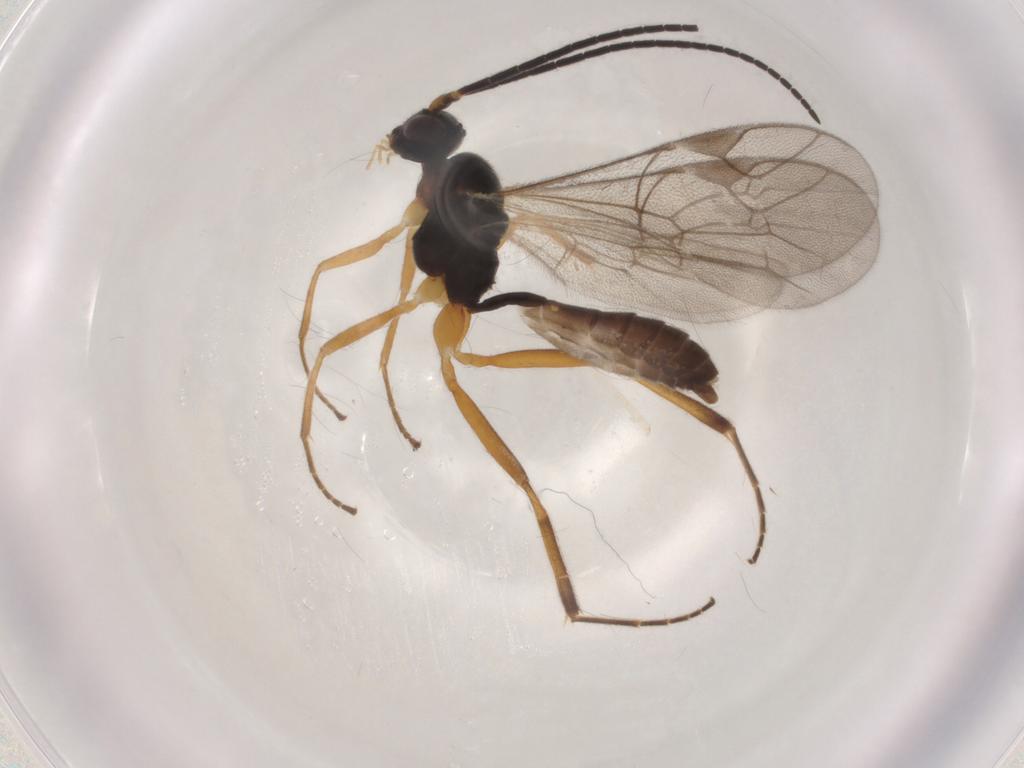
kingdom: Animalia
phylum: Arthropoda
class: Insecta
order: Hymenoptera
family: Ichneumonidae
